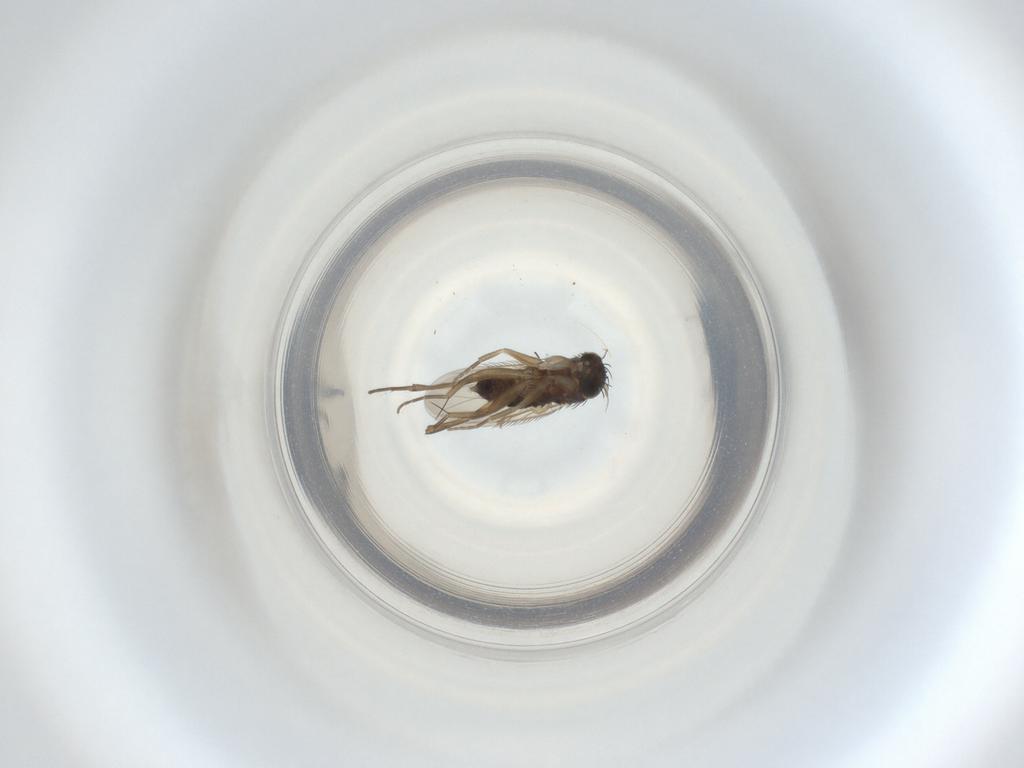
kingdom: Animalia
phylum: Arthropoda
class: Insecta
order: Diptera
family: Phoridae
